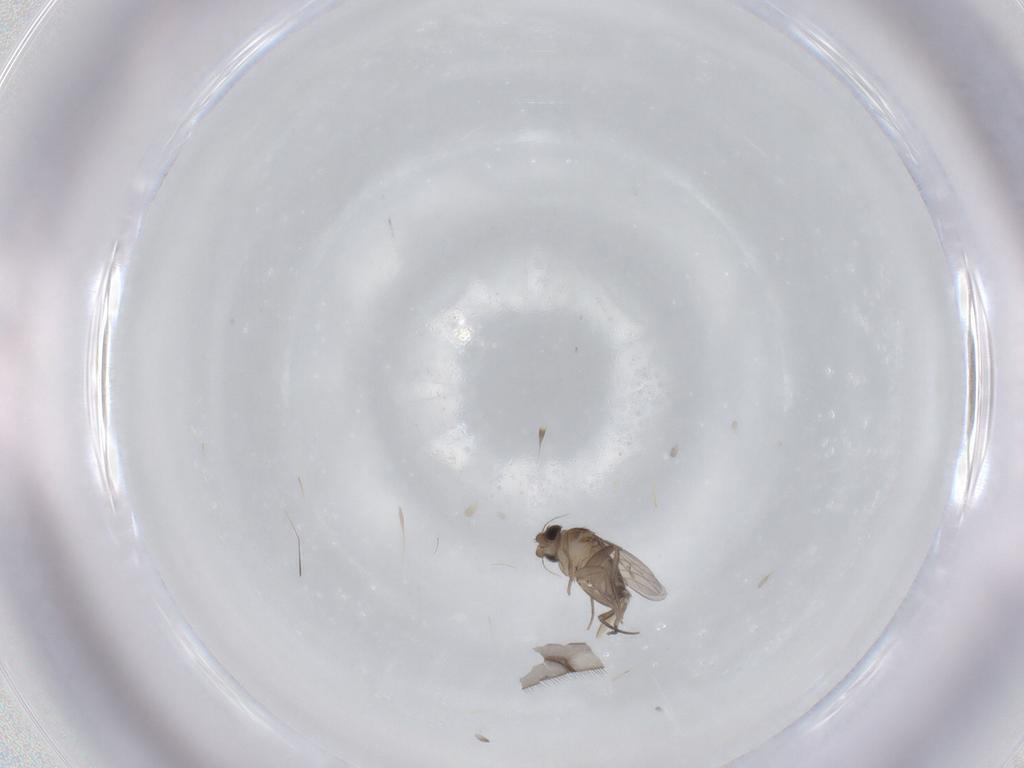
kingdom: Animalia
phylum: Arthropoda
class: Insecta
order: Diptera
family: Phoridae
